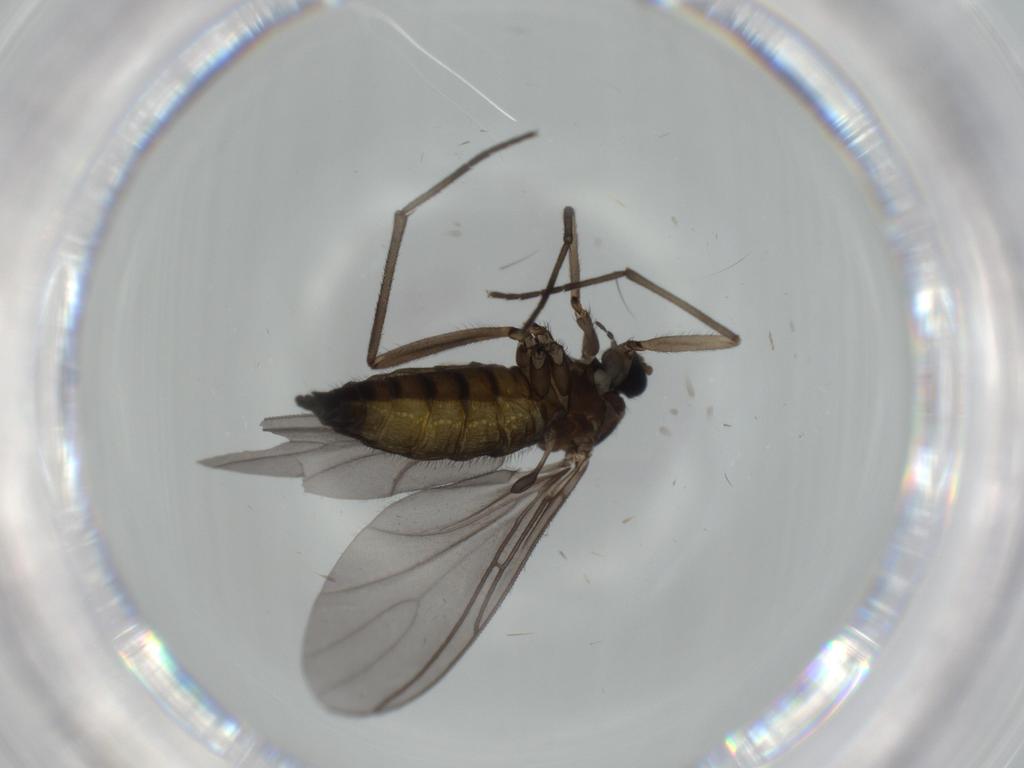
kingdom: Animalia
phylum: Arthropoda
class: Insecta
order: Diptera
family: Sciaridae
